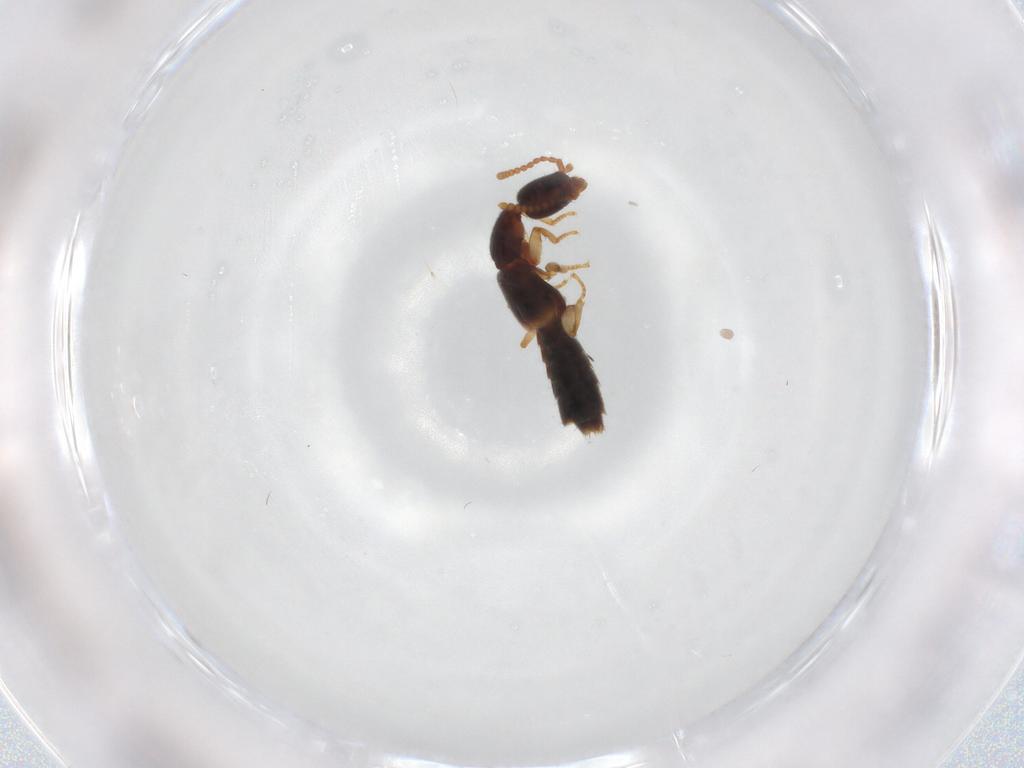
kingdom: Animalia
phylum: Arthropoda
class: Insecta
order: Coleoptera
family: Staphylinidae
